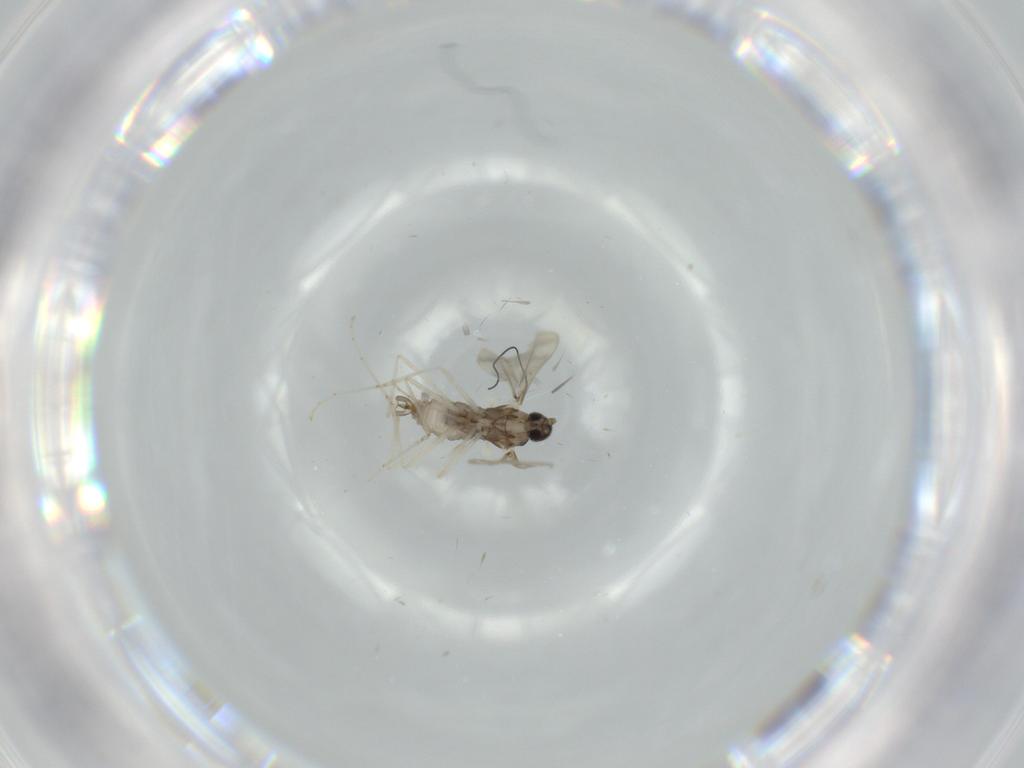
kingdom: Animalia
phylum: Arthropoda
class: Insecta
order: Diptera
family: Cecidomyiidae
